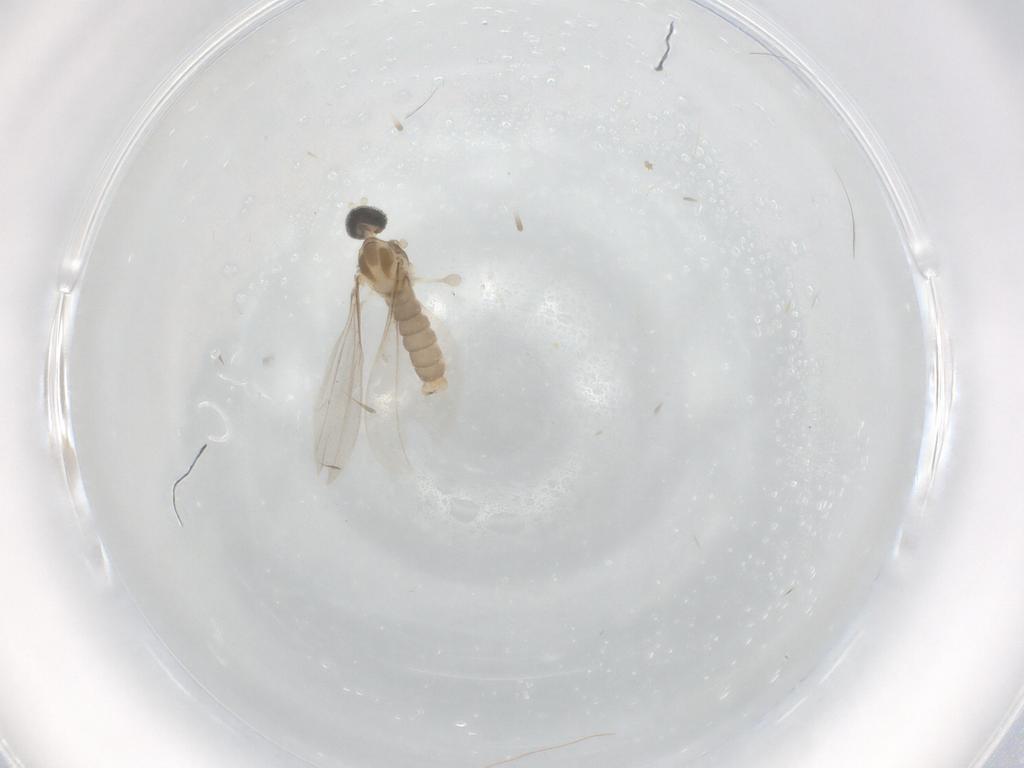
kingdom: Animalia
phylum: Arthropoda
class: Insecta
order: Diptera
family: Cecidomyiidae
